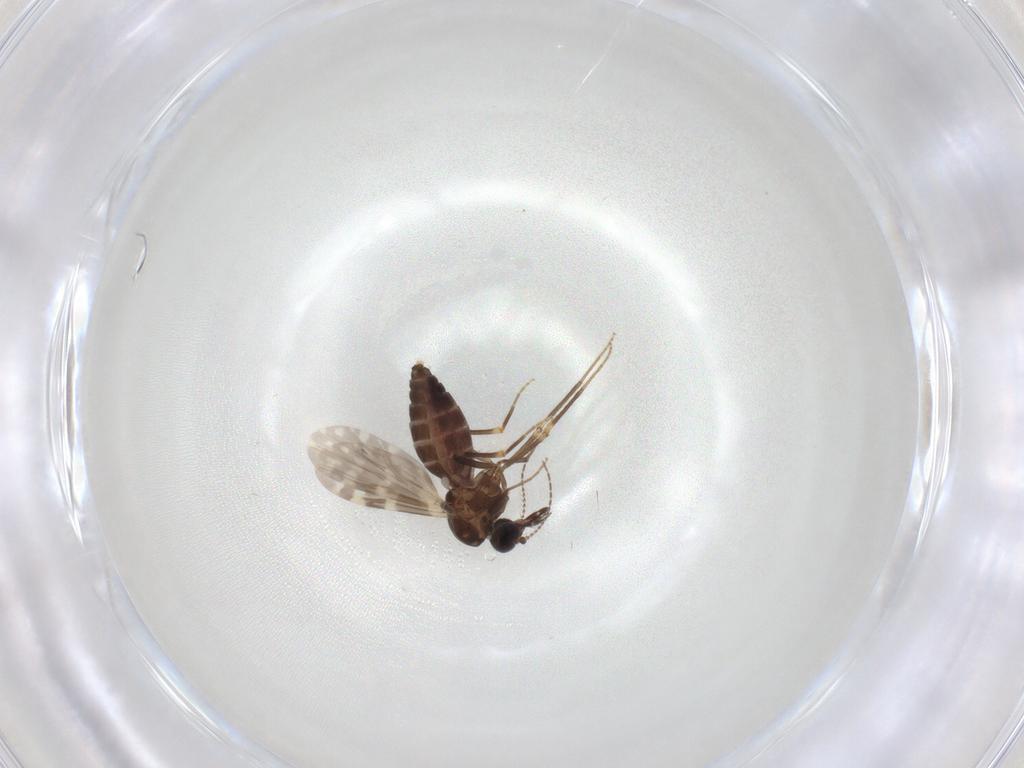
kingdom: Animalia
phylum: Arthropoda
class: Insecta
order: Diptera
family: Ceratopogonidae
